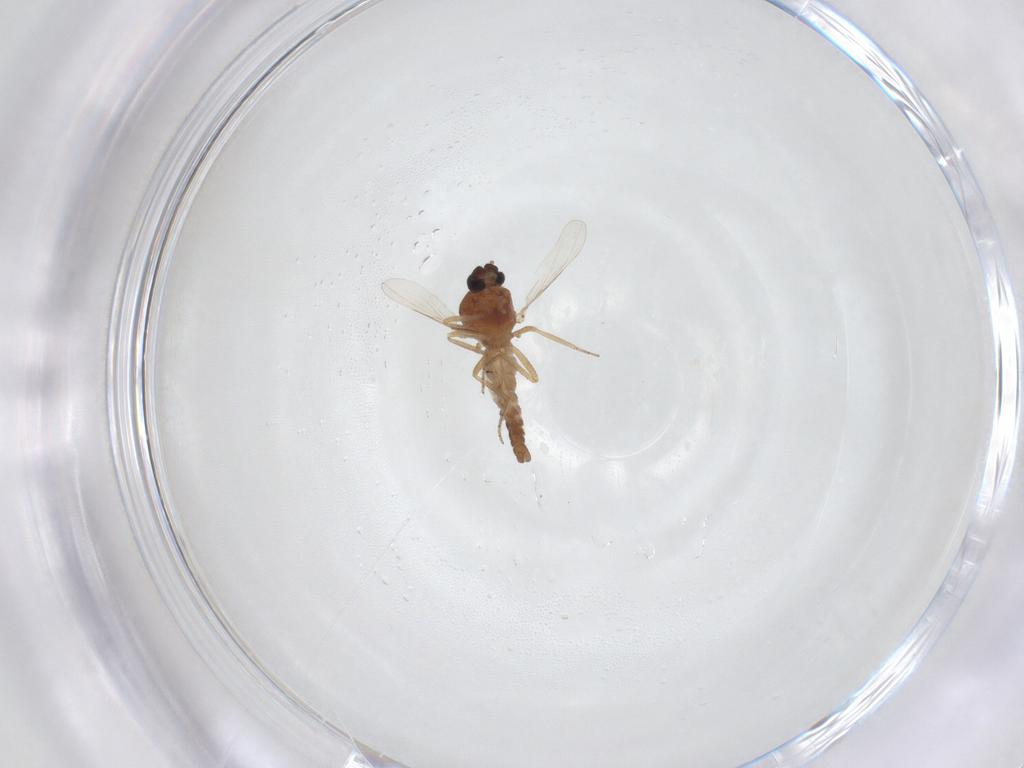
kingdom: Animalia
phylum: Arthropoda
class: Insecta
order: Diptera
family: Ceratopogonidae
